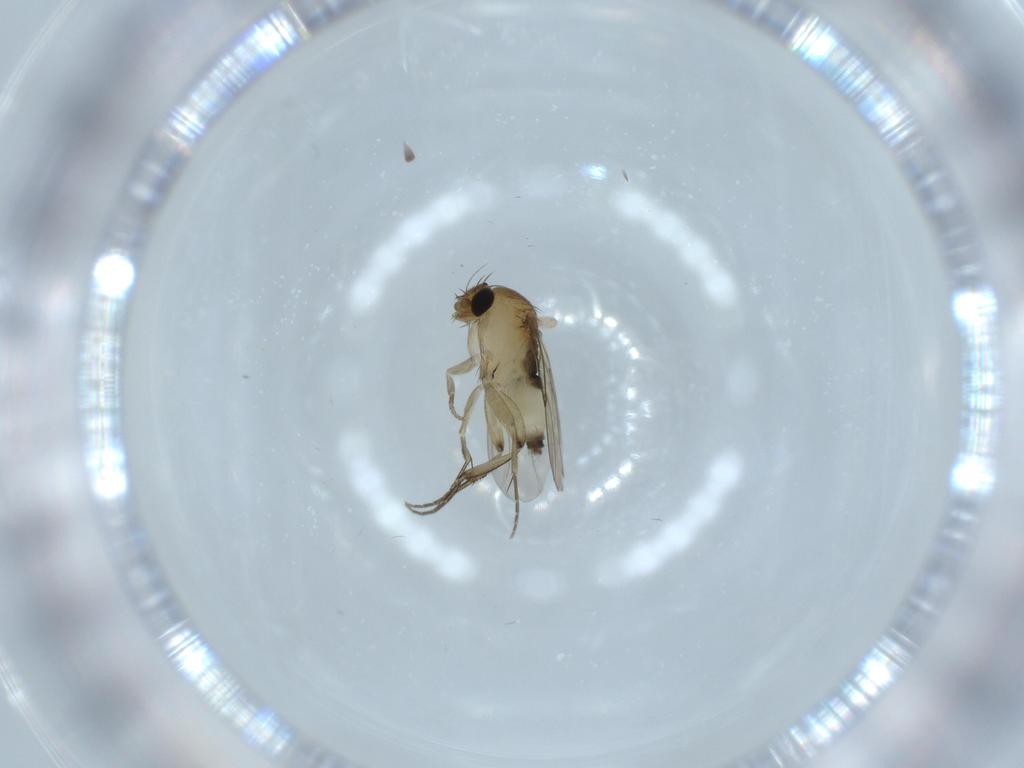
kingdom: Animalia
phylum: Arthropoda
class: Insecta
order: Diptera
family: Phoridae
